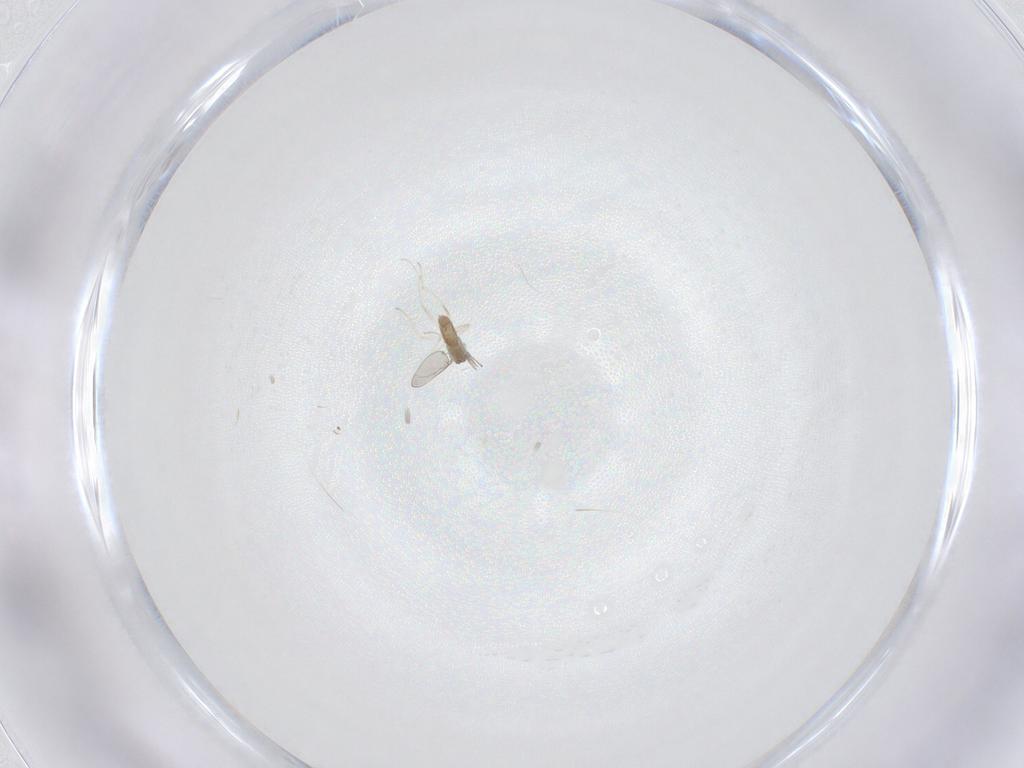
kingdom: Animalia
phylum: Arthropoda
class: Insecta
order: Diptera
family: Cecidomyiidae
